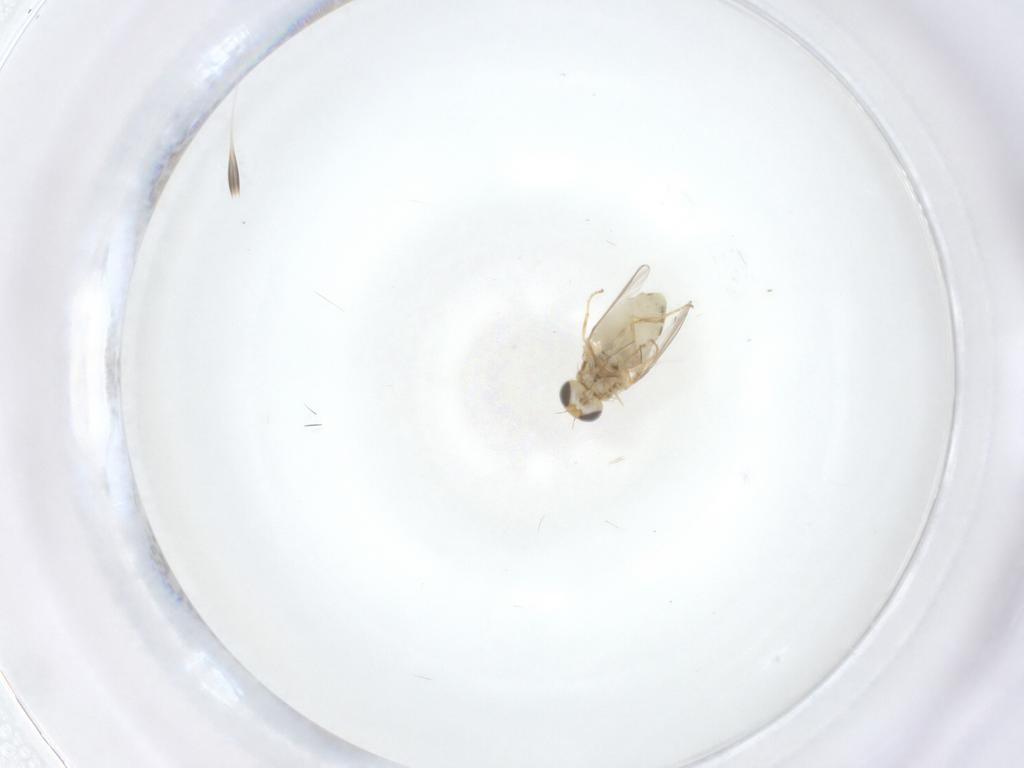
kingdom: Animalia
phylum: Arthropoda
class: Insecta
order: Diptera
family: Chyromyidae
